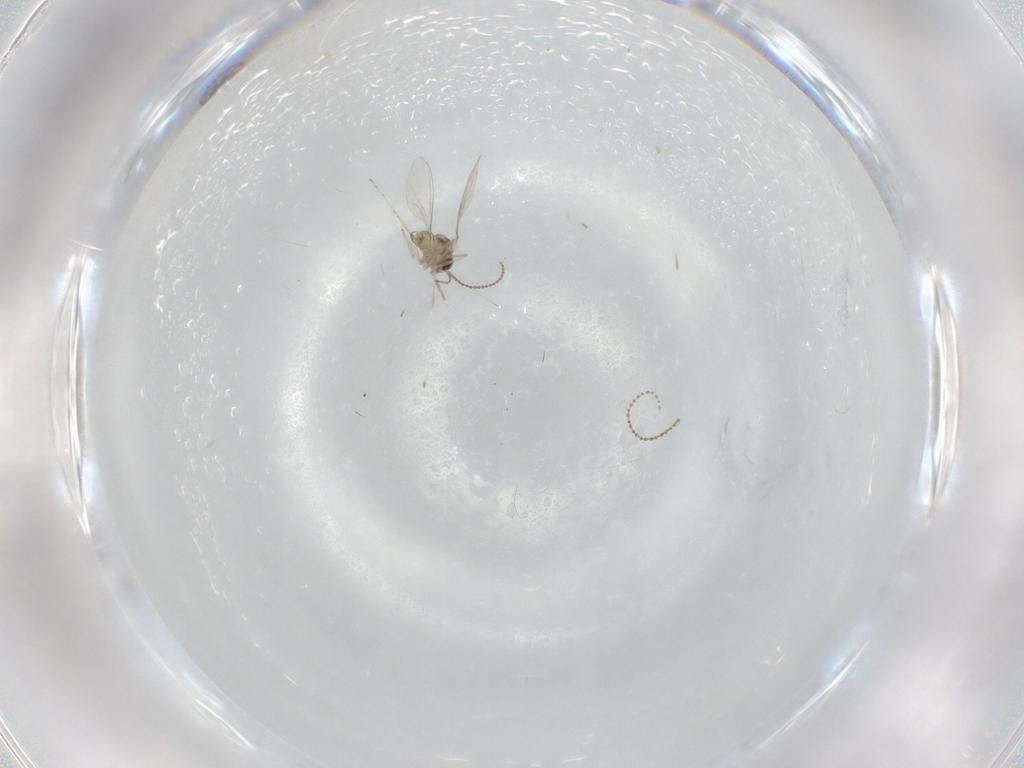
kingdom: Animalia
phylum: Arthropoda
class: Insecta
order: Diptera
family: Cecidomyiidae
